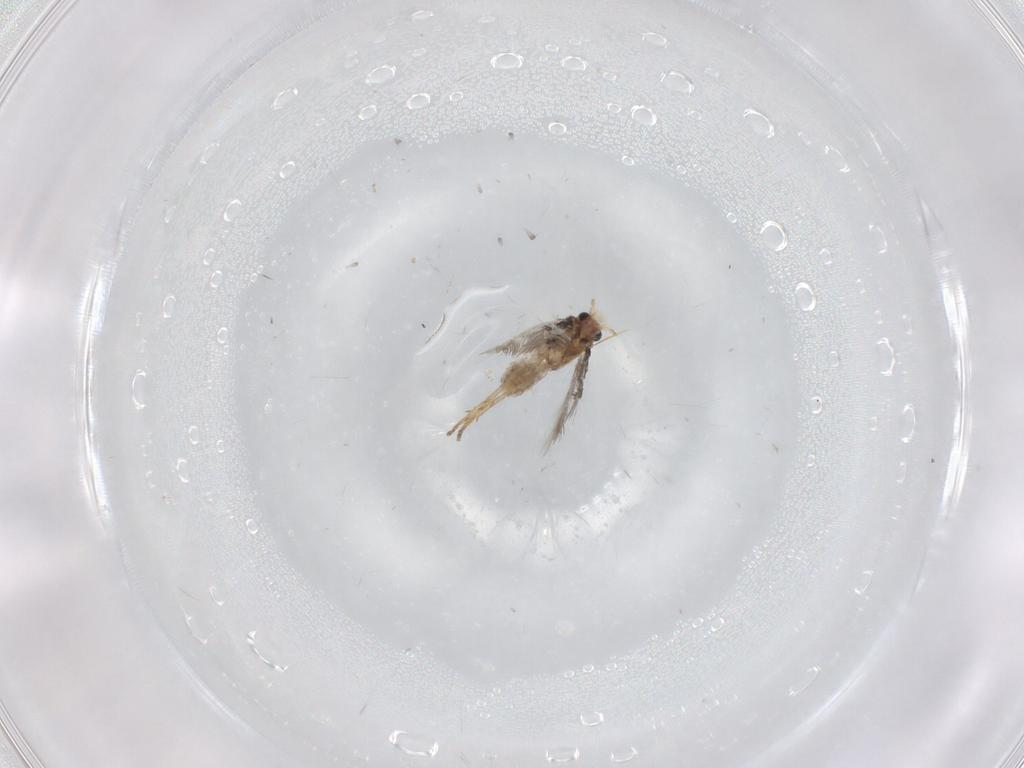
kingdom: Animalia
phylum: Arthropoda
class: Insecta
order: Lepidoptera
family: Nepticulidae
